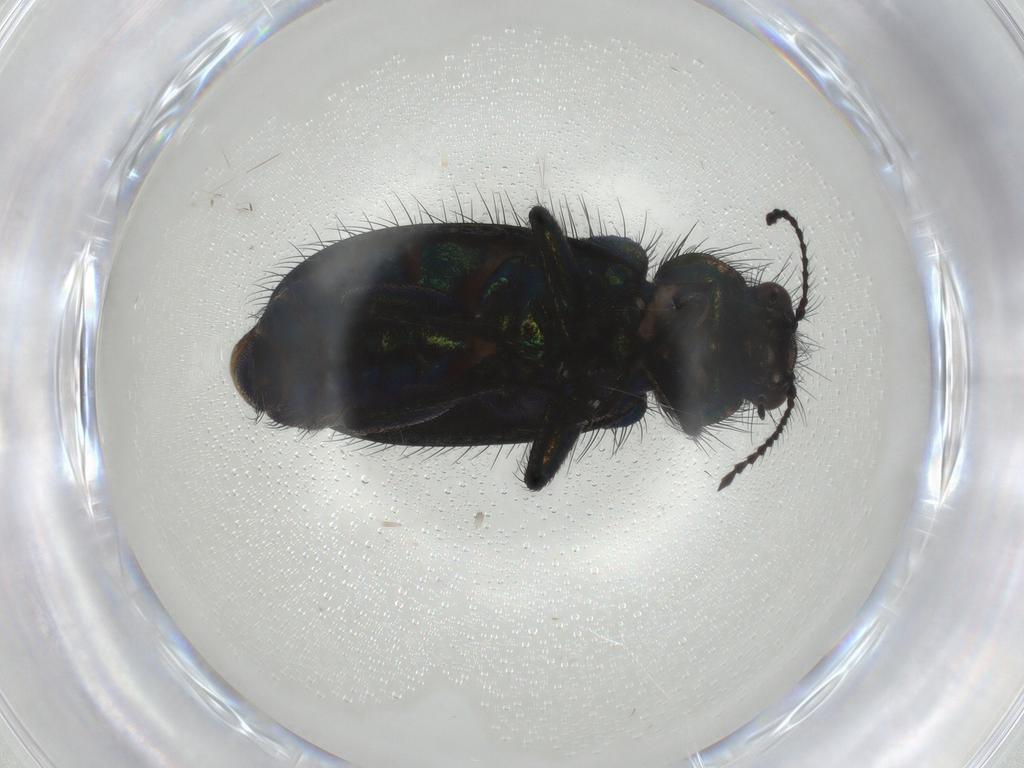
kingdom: Animalia
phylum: Arthropoda
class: Insecta
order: Coleoptera
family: Melyridae
